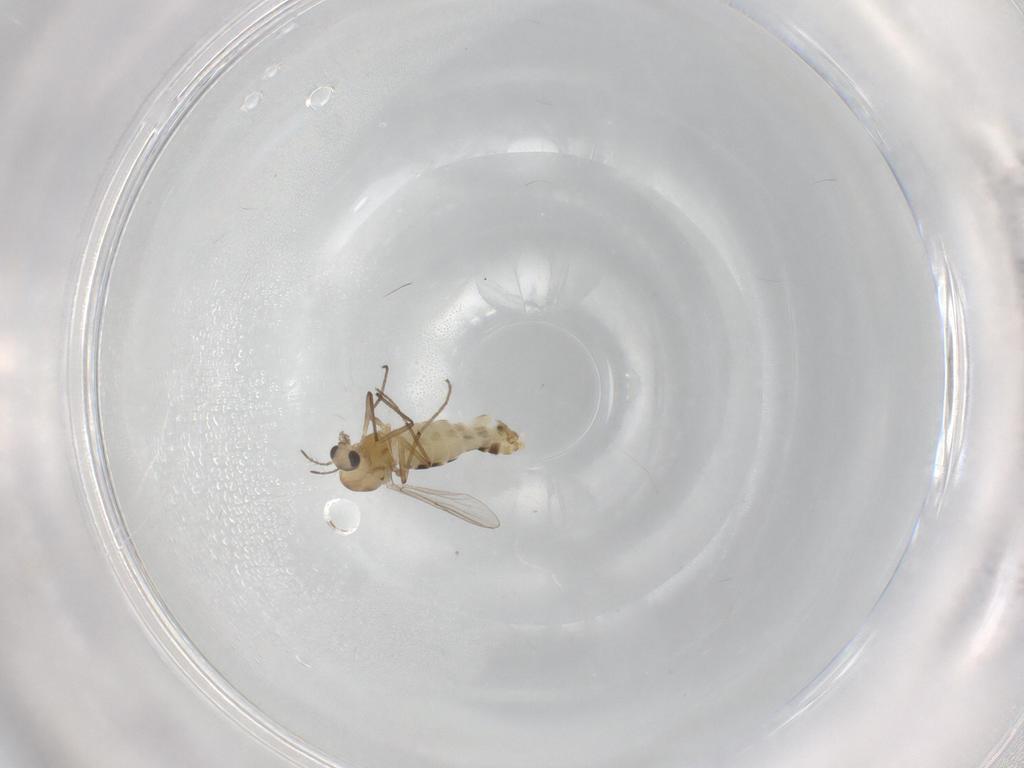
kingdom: Animalia
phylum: Arthropoda
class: Insecta
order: Diptera
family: Chironomidae
